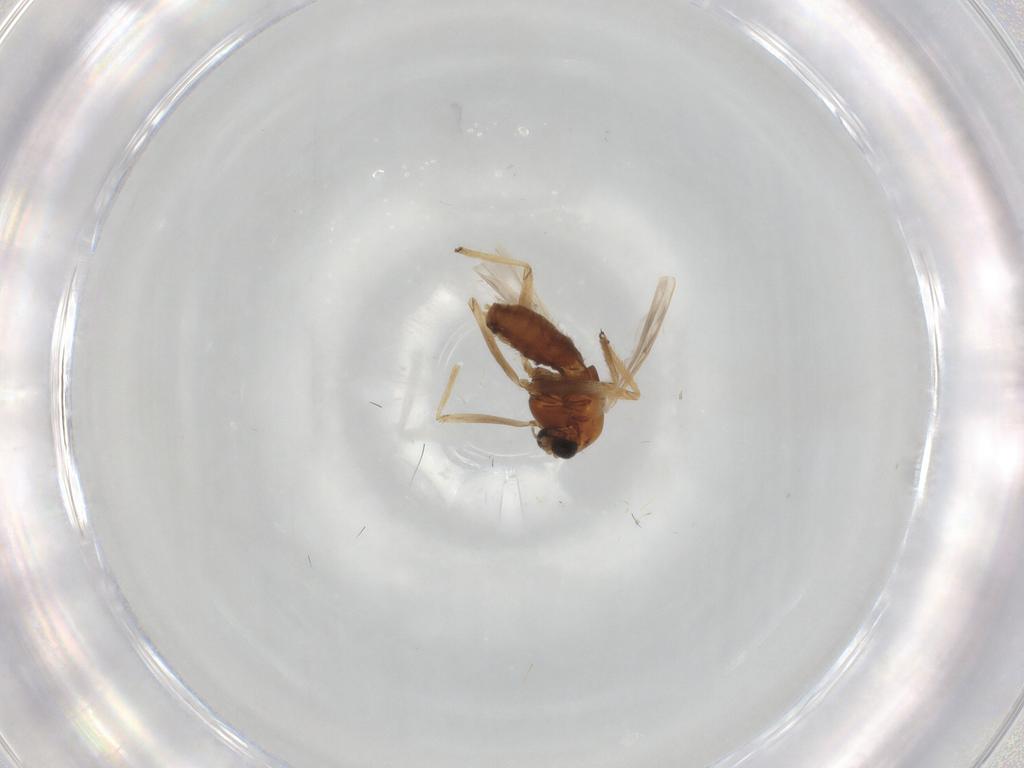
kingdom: Animalia
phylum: Arthropoda
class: Insecta
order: Diptera
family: Chironomidae
